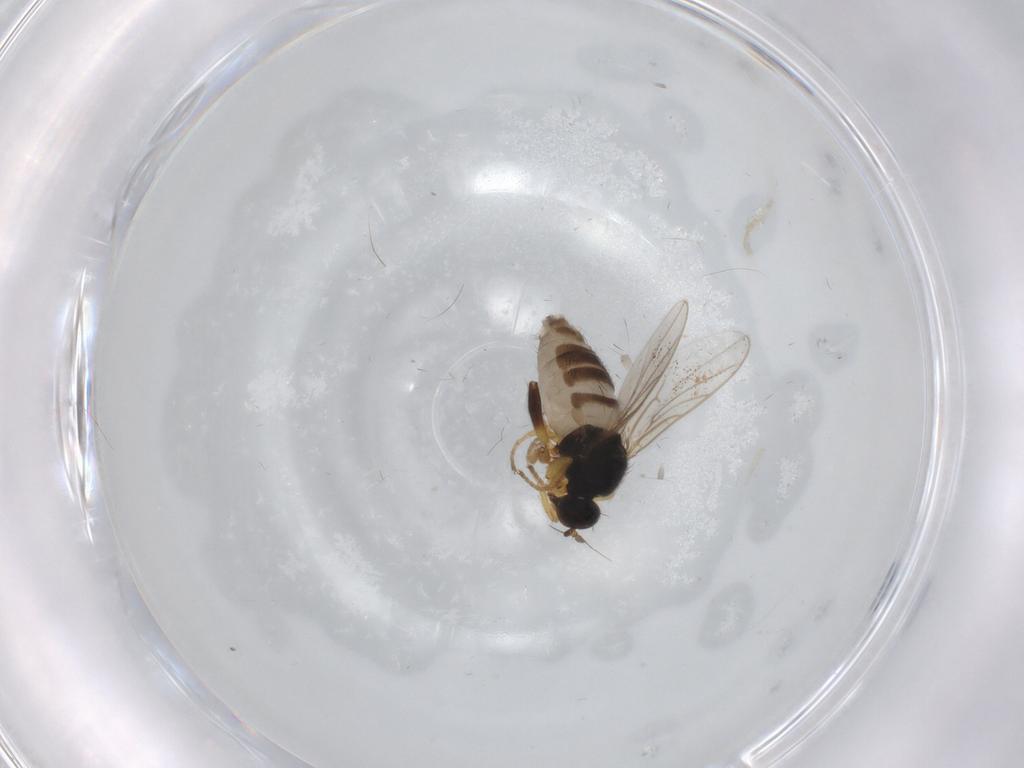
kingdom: Animalia
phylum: Arthropoda
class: Insecta
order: Diptera
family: Hybotidae
